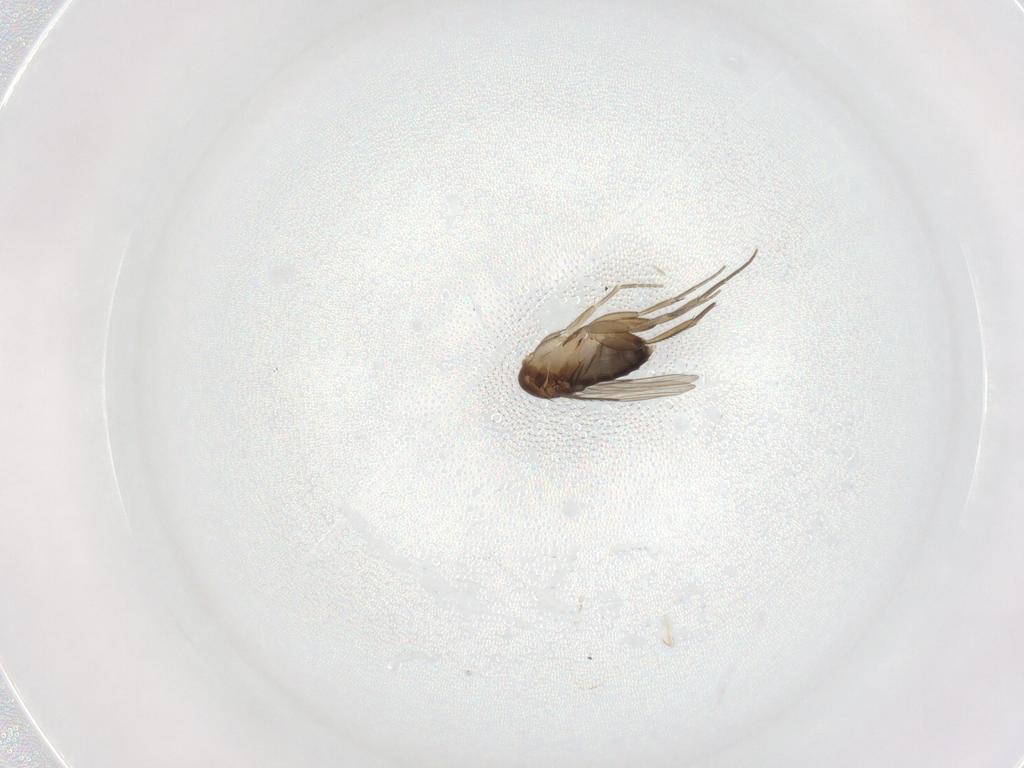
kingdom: Animalia
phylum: Arthropoda
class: Insecta
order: Diptera
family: Phoridae
